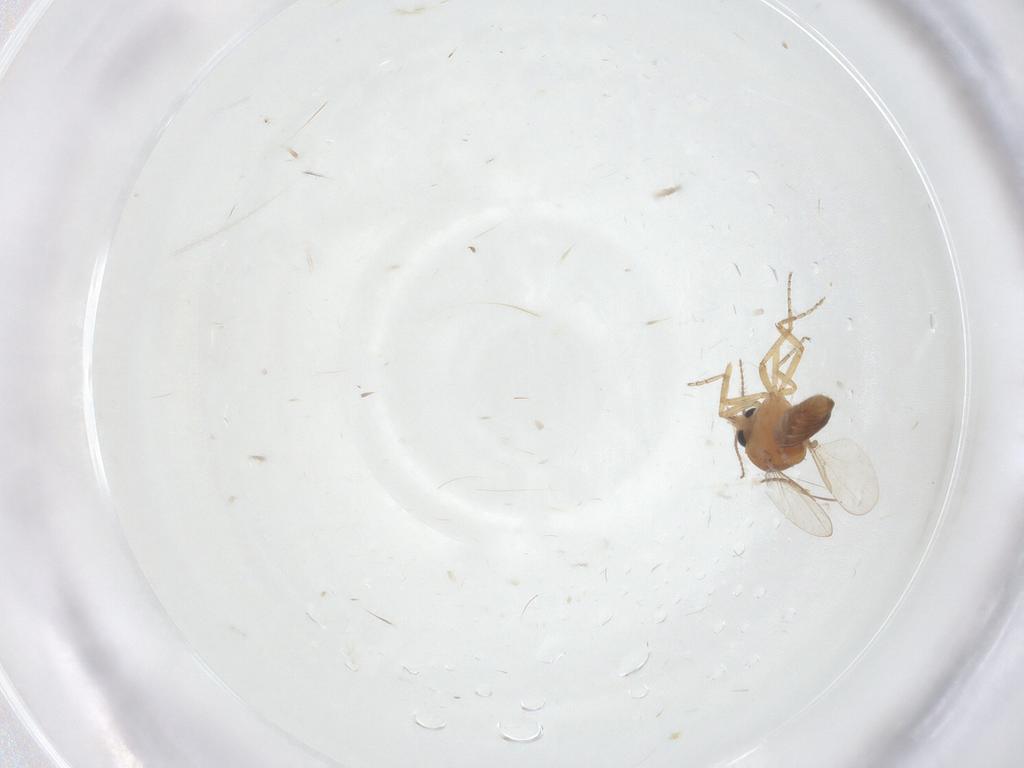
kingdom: Animalia
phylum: Arthropoda
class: Insecta
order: Diptera
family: Ceratopogonidae
